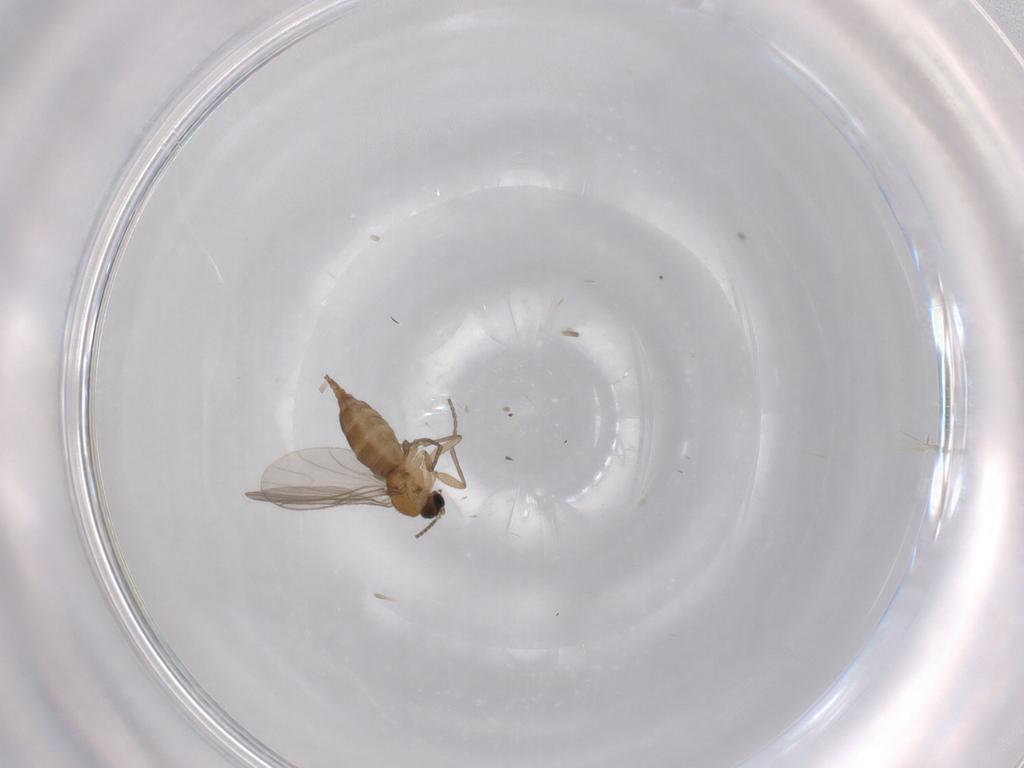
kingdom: Animalia
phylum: Arthropoda
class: Insecta
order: Diptera
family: Sciaridae
